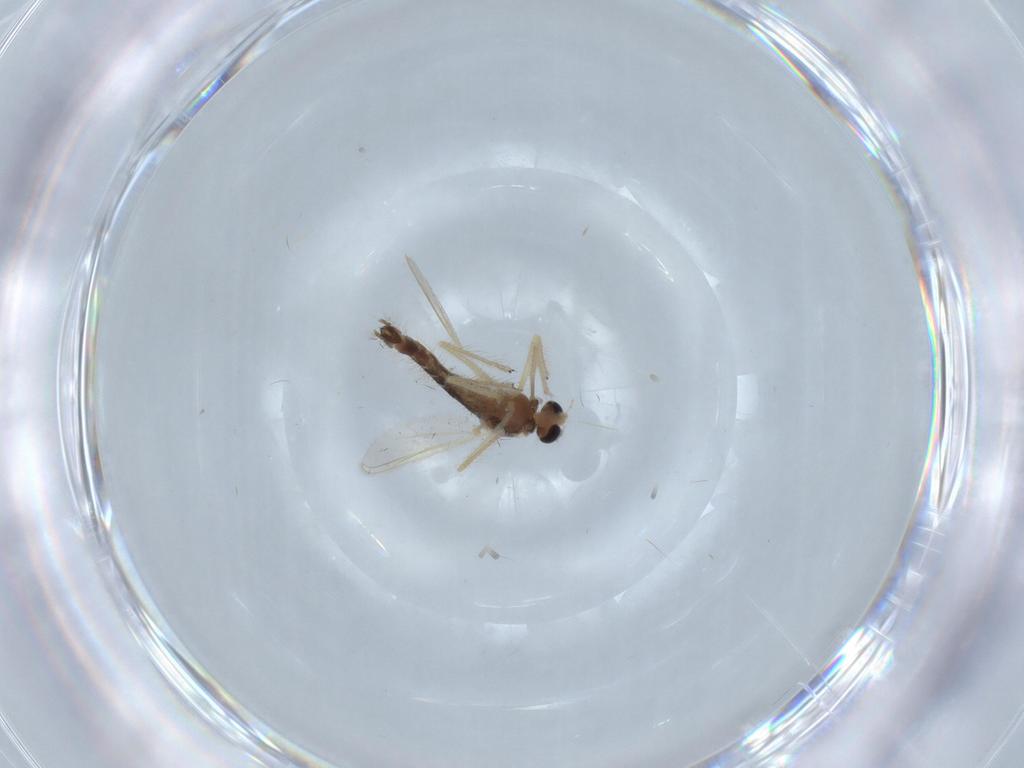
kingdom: Animalia
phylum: Arthropoda
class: Insecta
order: Diptera
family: Chironomidae
